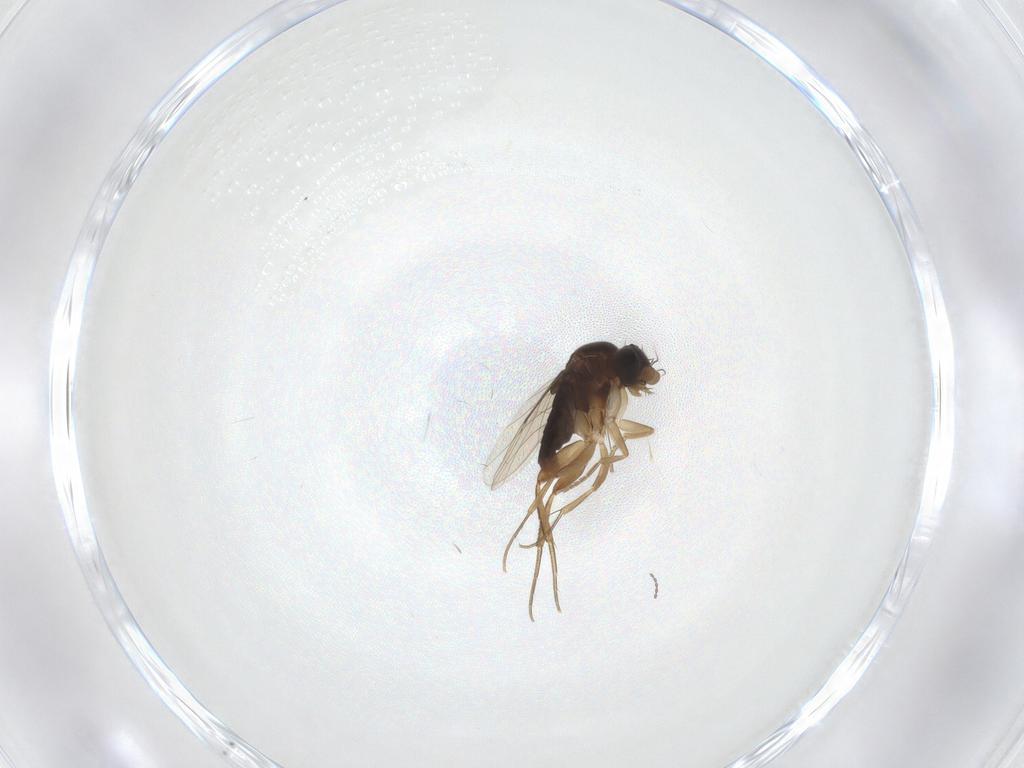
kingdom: Animalia
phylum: Arthropoda
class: Insecta
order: Diptera
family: Phoridae
